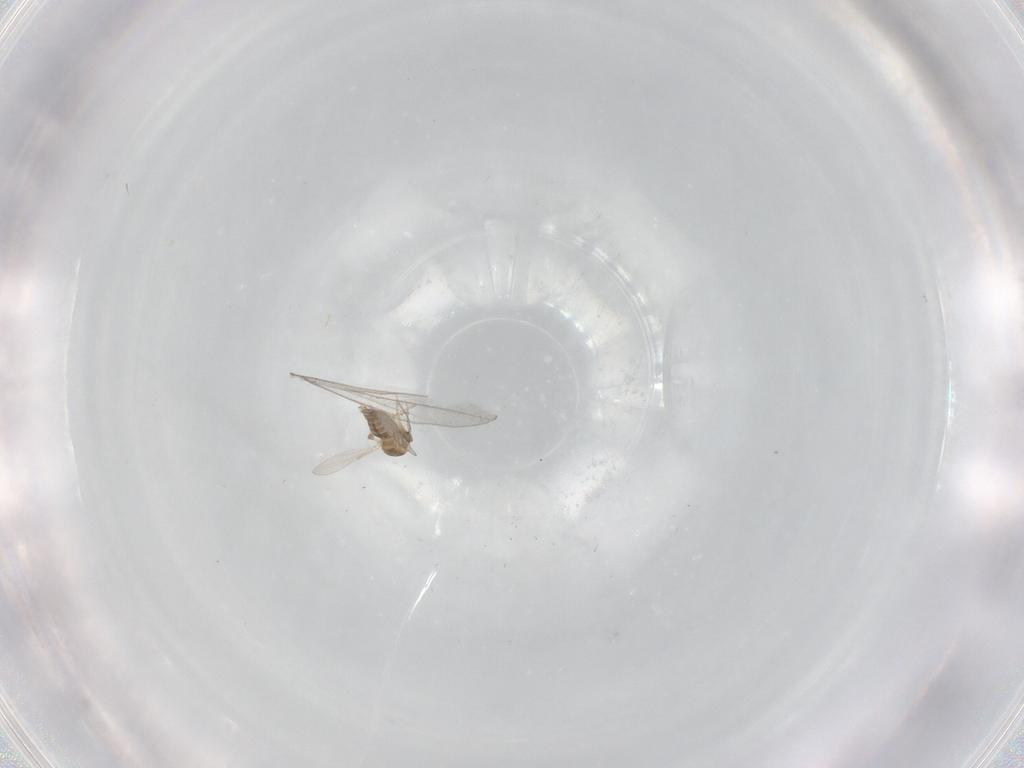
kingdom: Animalia
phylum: Arthropoda
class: Insecta
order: Diptera
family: Ceratopogonidae
